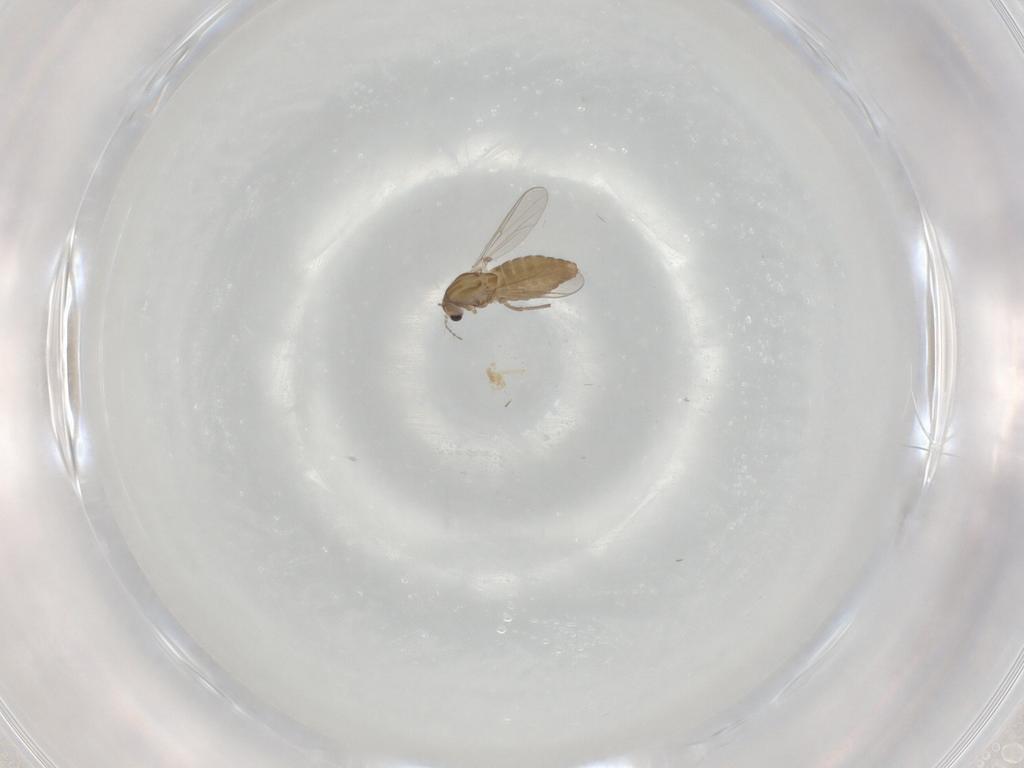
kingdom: Animalia
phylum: Arthropoda
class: Insecta
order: Diptera
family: Chironomidae
